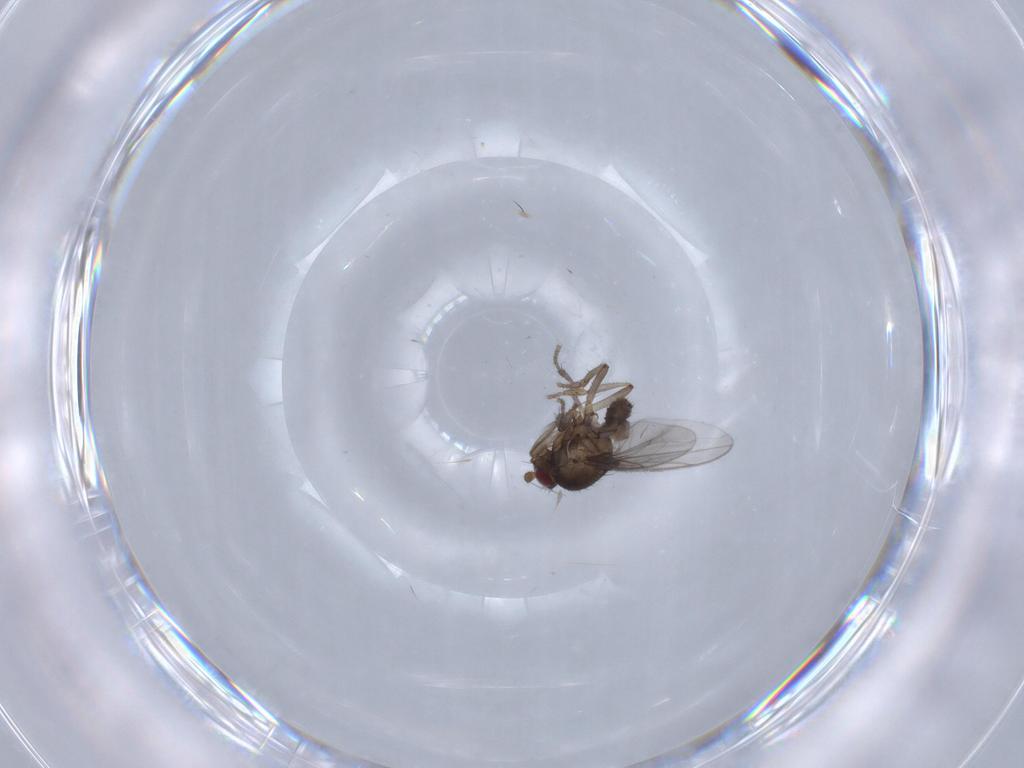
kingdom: Animalia
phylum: Arthropoda
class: Insecta
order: Diptera
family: Sphaeroceridae
